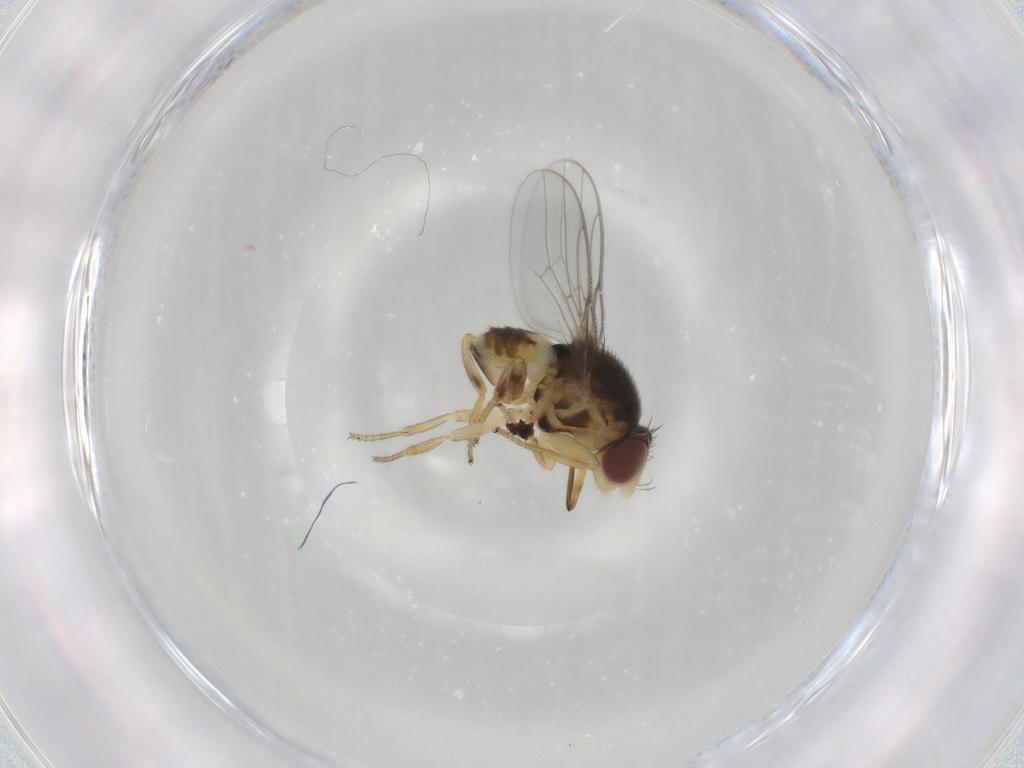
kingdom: Animalia
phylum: Arthropoda
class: Insecta
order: Diptera
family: Chloropidae
